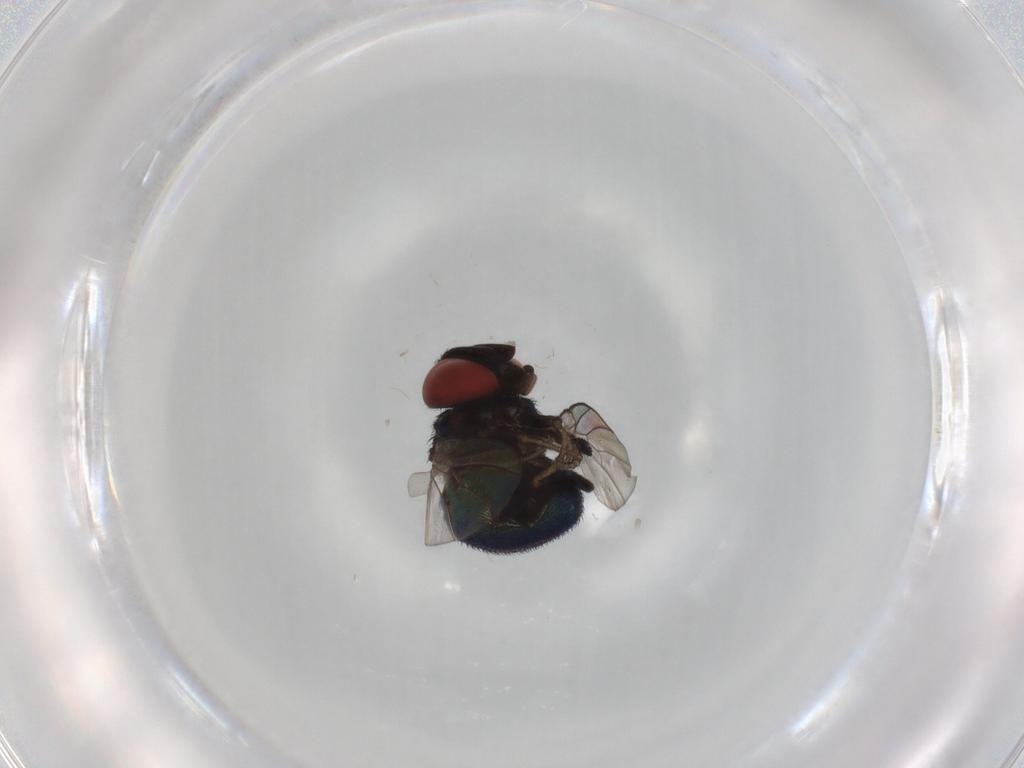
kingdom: Animalia
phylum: Arthropoda
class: Insecta
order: Diptera
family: Cryptochetidae
